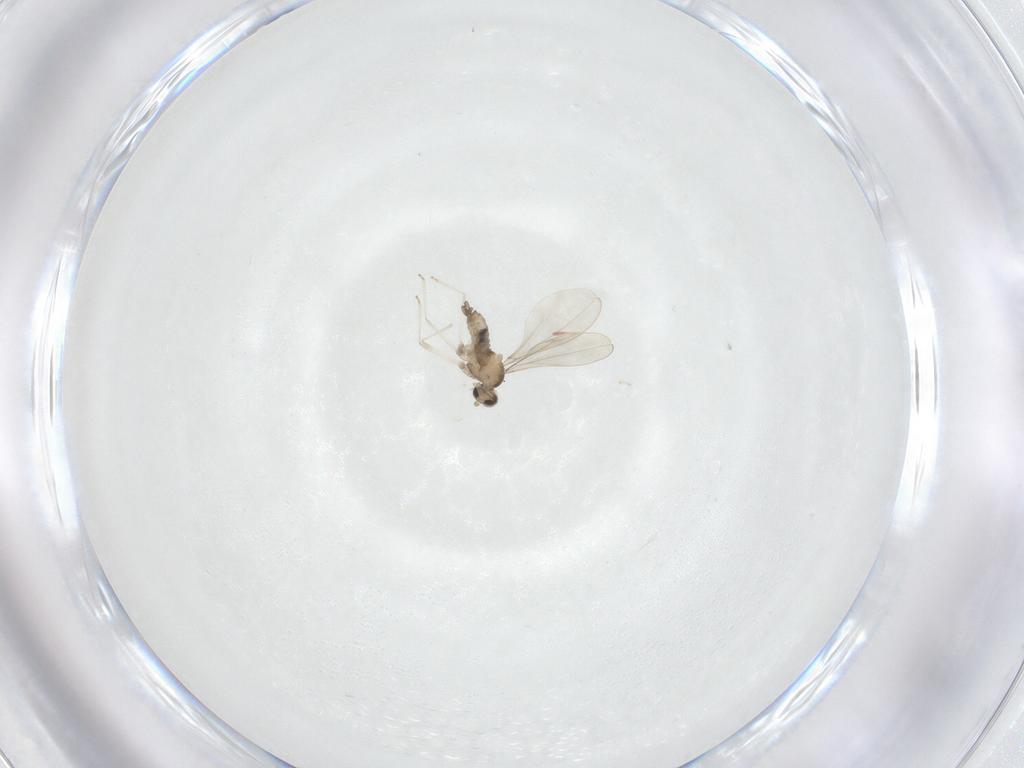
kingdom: Animalia
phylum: Arthropoda
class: Insecta
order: Diptera
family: Cecidomyiidae
